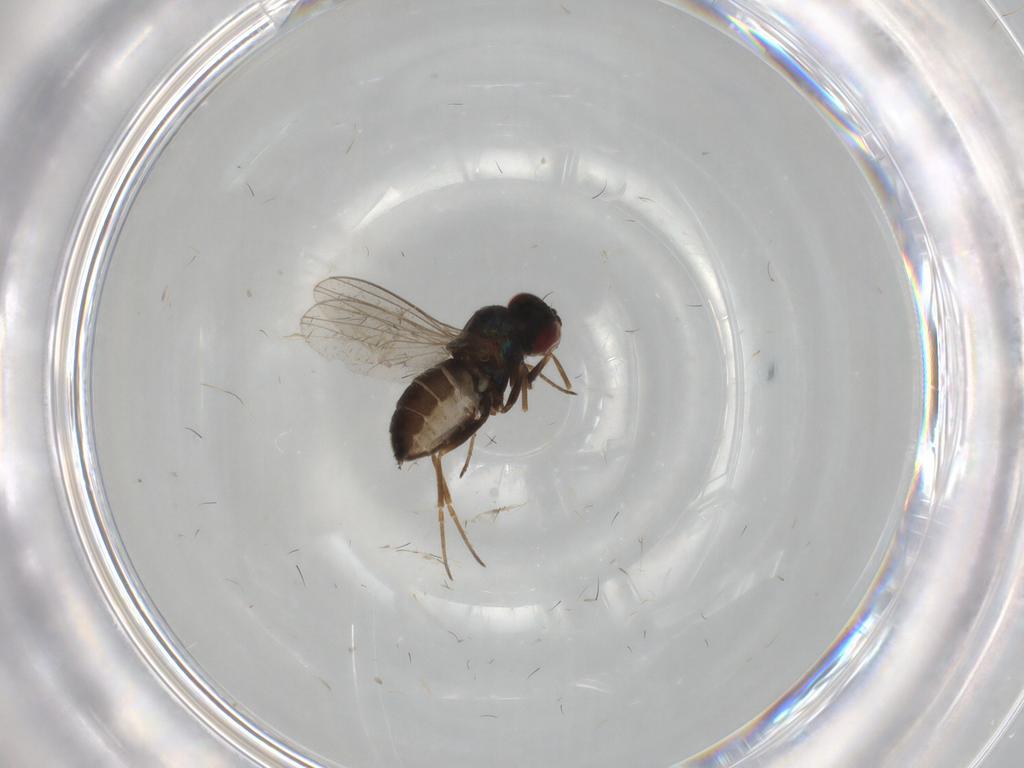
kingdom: Animalia
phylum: Arthropoda
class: Insecta
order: Diptera
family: Dolichopodidae
